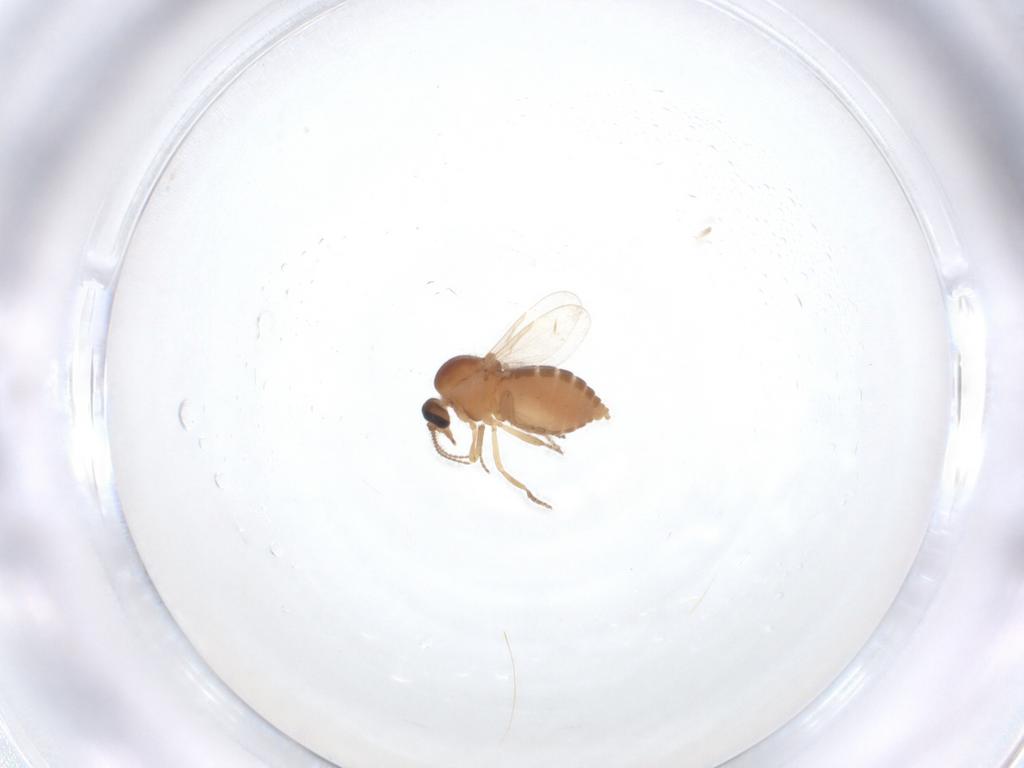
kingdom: Animalia
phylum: Arthropoda
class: Insecta
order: Diptera
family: Ceratopogonidae
